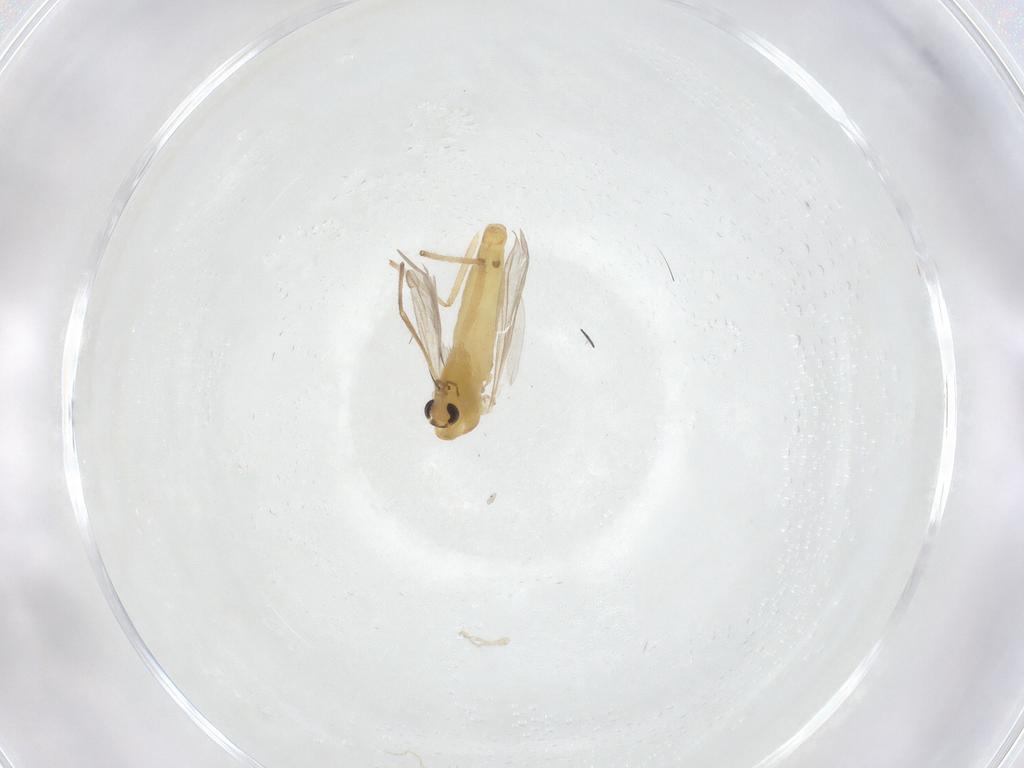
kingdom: Animalia
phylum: Arthropoda
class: Insecta
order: Diptera
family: Chironomidae
